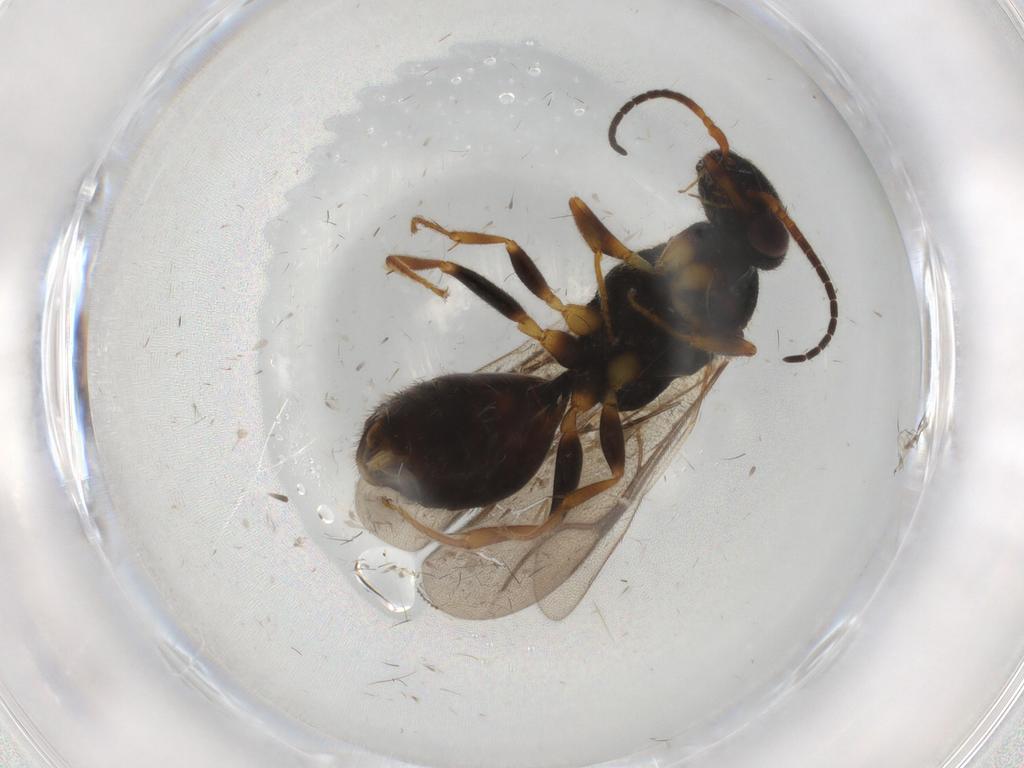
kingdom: Animalia
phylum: Arthropoda
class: Insecta
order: Hymenoptera
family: Bethylidae
